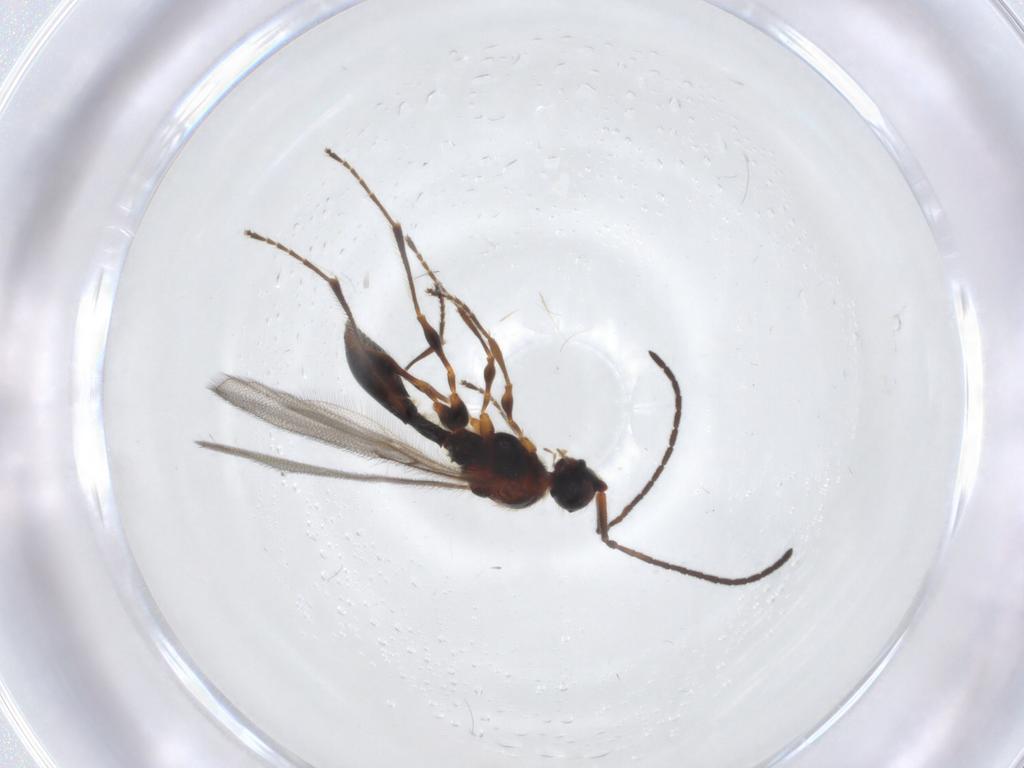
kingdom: Animalia
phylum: Arthropoda
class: Insecta
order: Hymenoptera
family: Diapriidae
